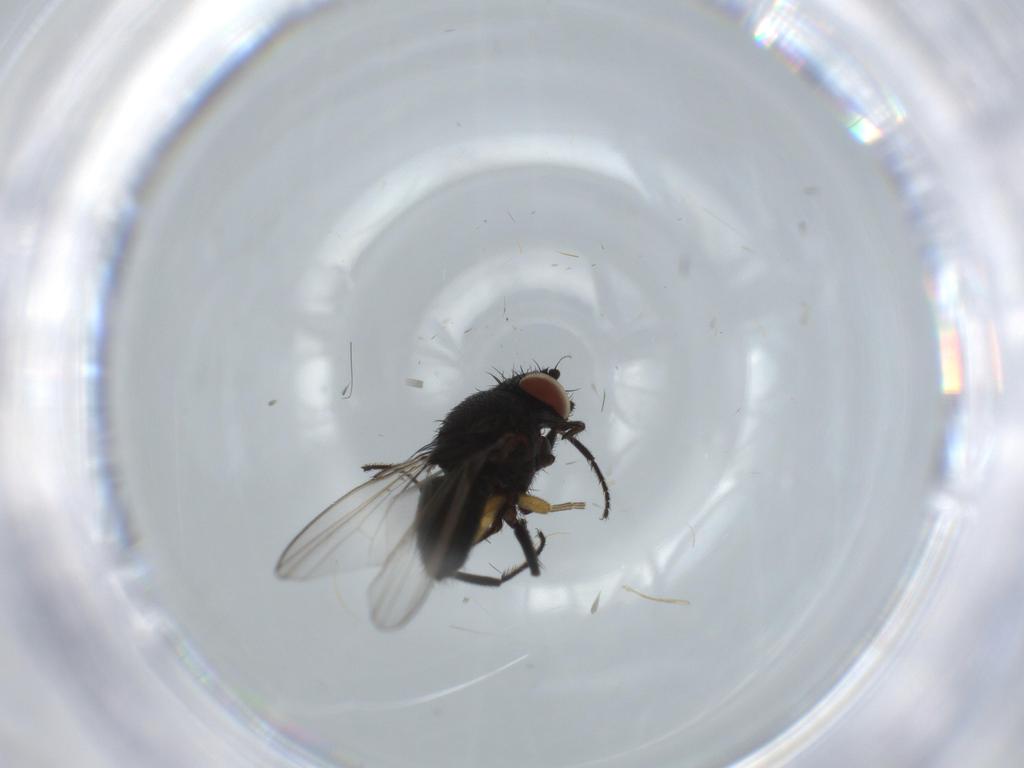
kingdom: Animalia
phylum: Arthropoda
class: Insecta
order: Diptera
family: Milichiidae
